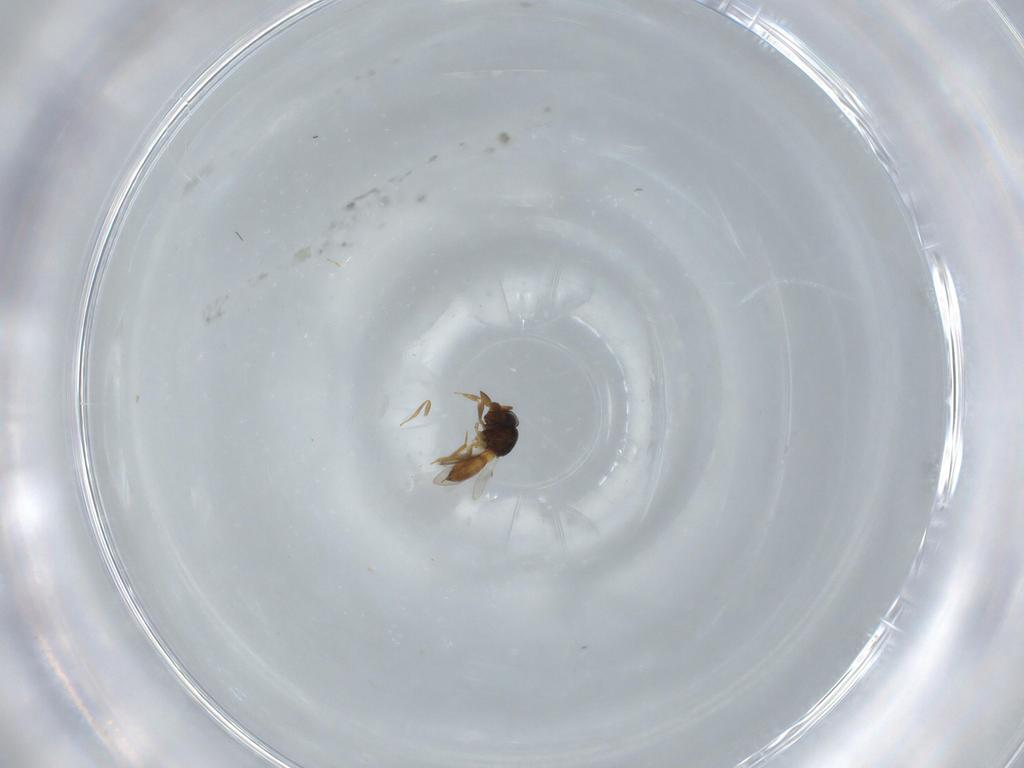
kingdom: Animalia
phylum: Arthropoda
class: Insecta
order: Hymenoptera
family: Scelionidae
